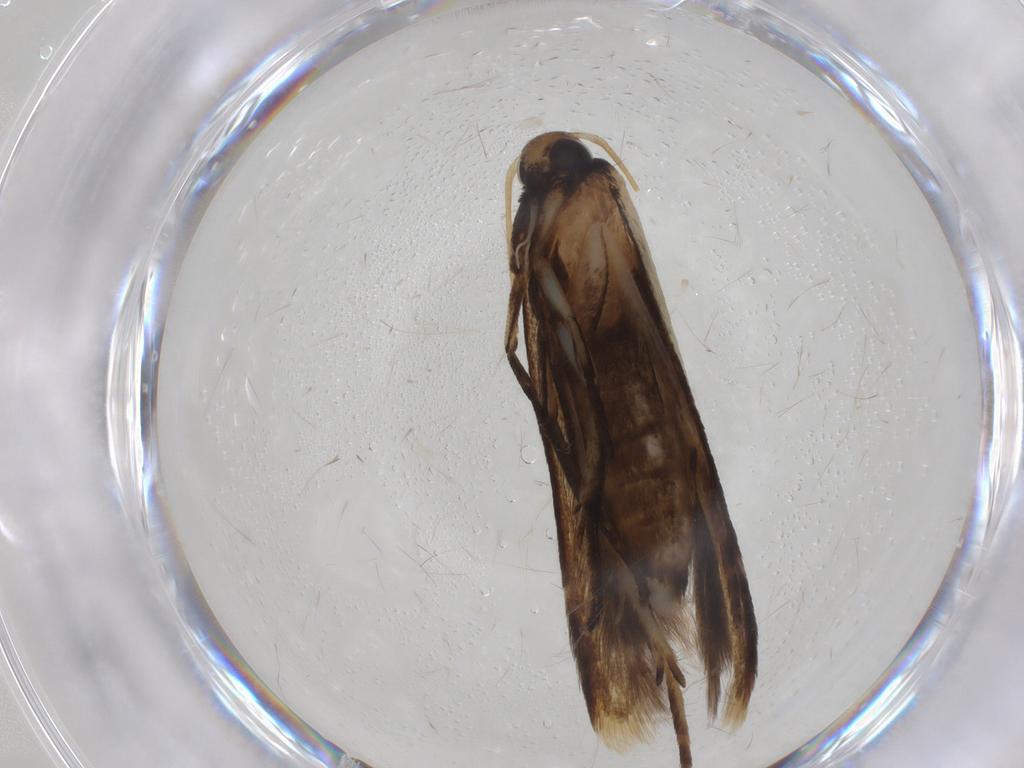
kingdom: Animalia
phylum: Arthropoda
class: Insecta
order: Lepidoptera
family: Gelechiidae
